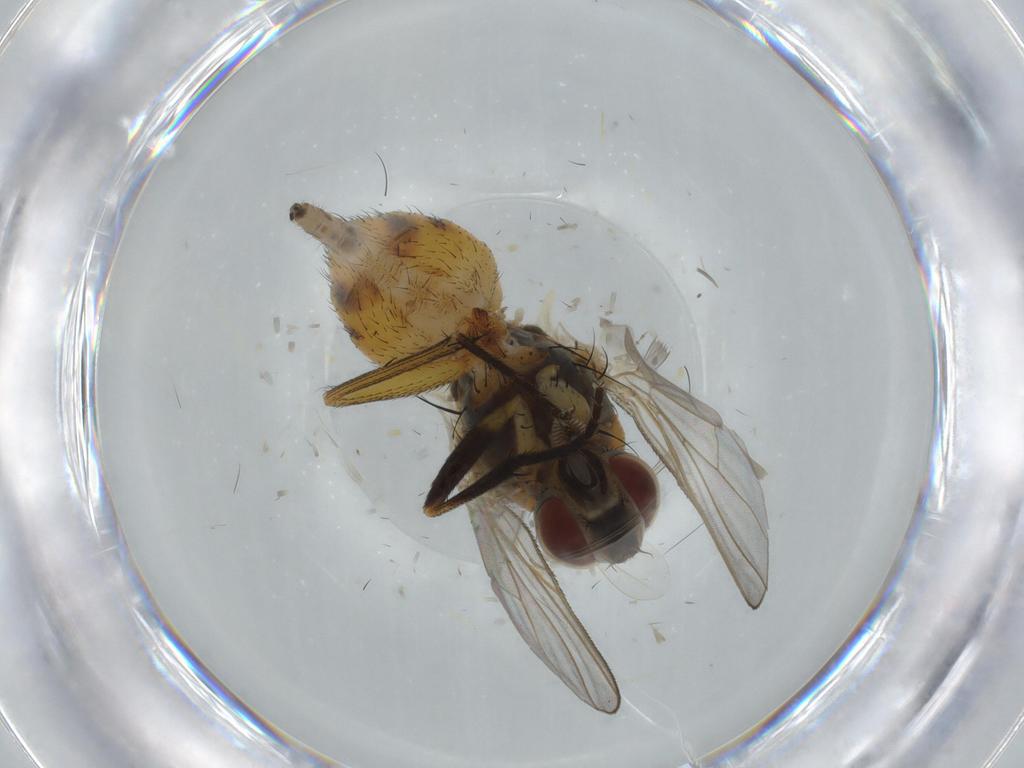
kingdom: Animalia
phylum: Arthropoda
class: Insecta
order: Diptera
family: Muscidae
